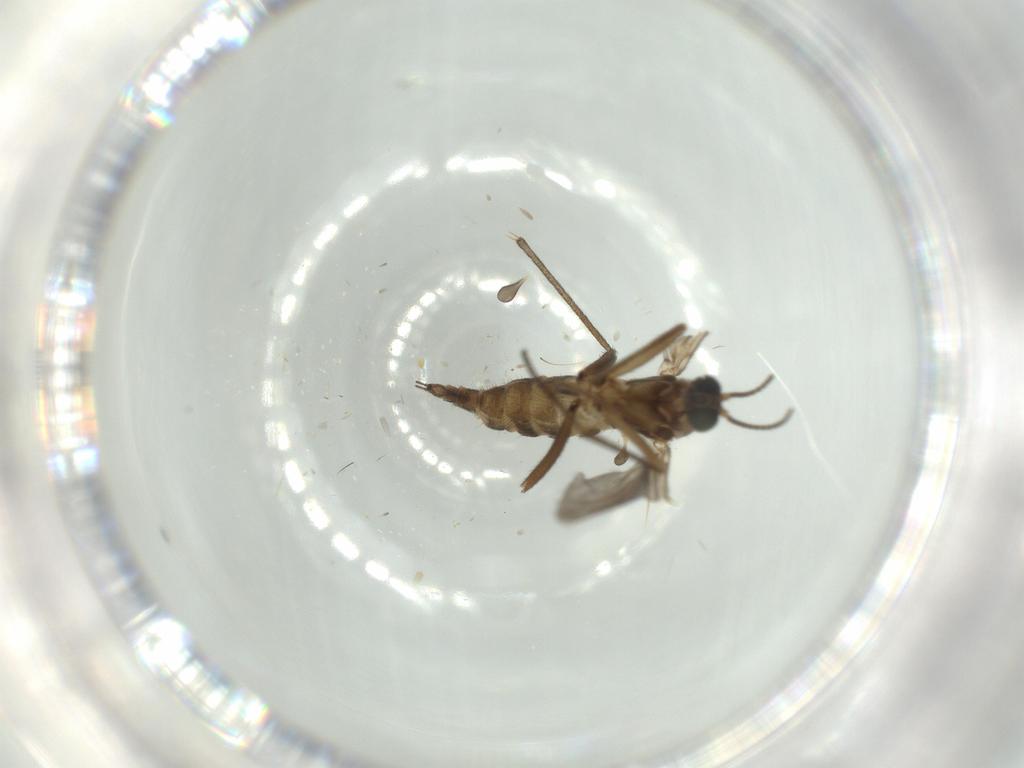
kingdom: Animalia
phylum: Arthropoda
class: Insecta
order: Diptera
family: Sciaridae
